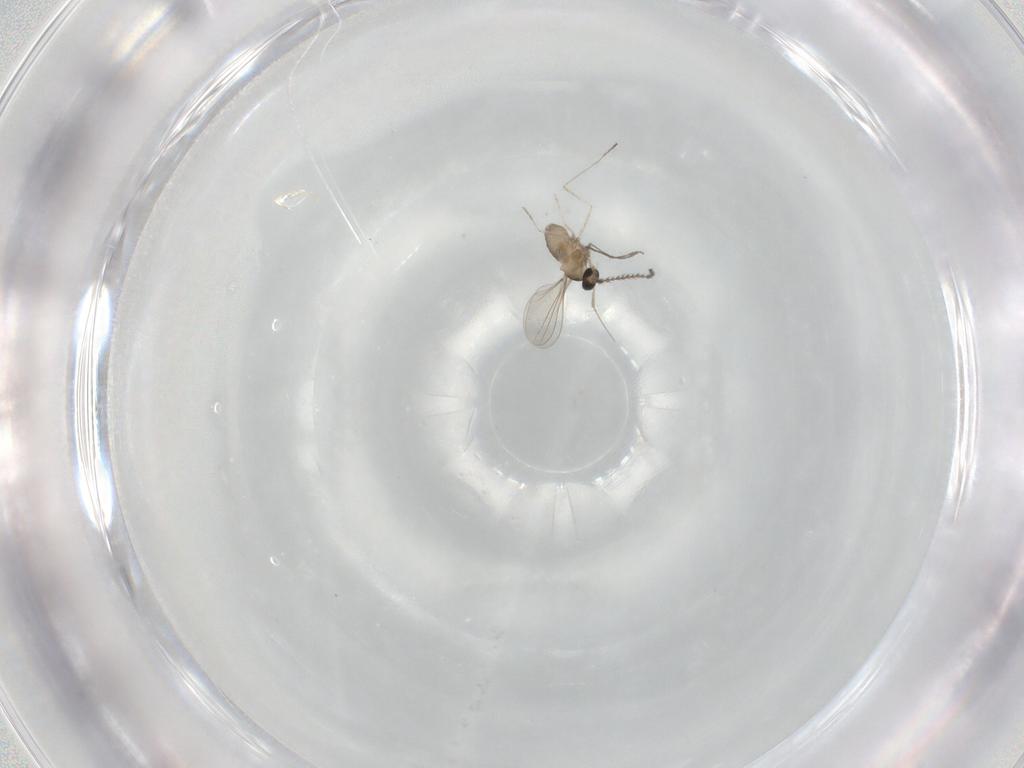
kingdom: Animalia
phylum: Arthropoda
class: Insecta
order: Diptera
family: Cecidomyiidae
